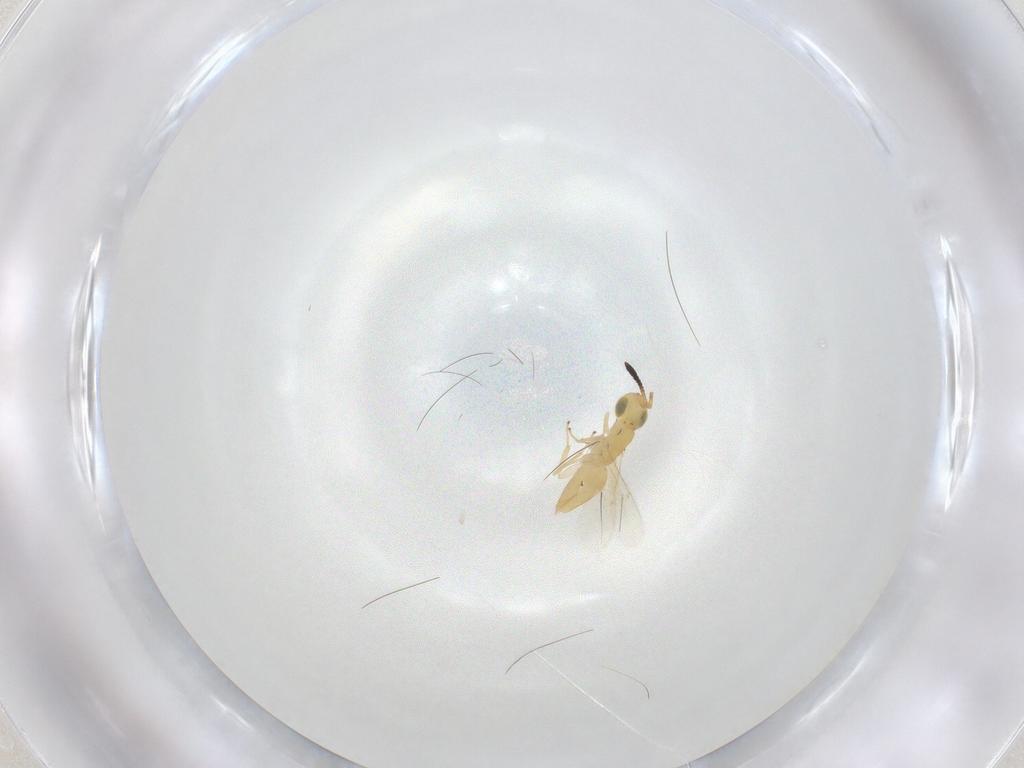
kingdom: Animalia
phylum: Arthropoda
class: Insecta
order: Hymenoptera
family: Encyrtidae
